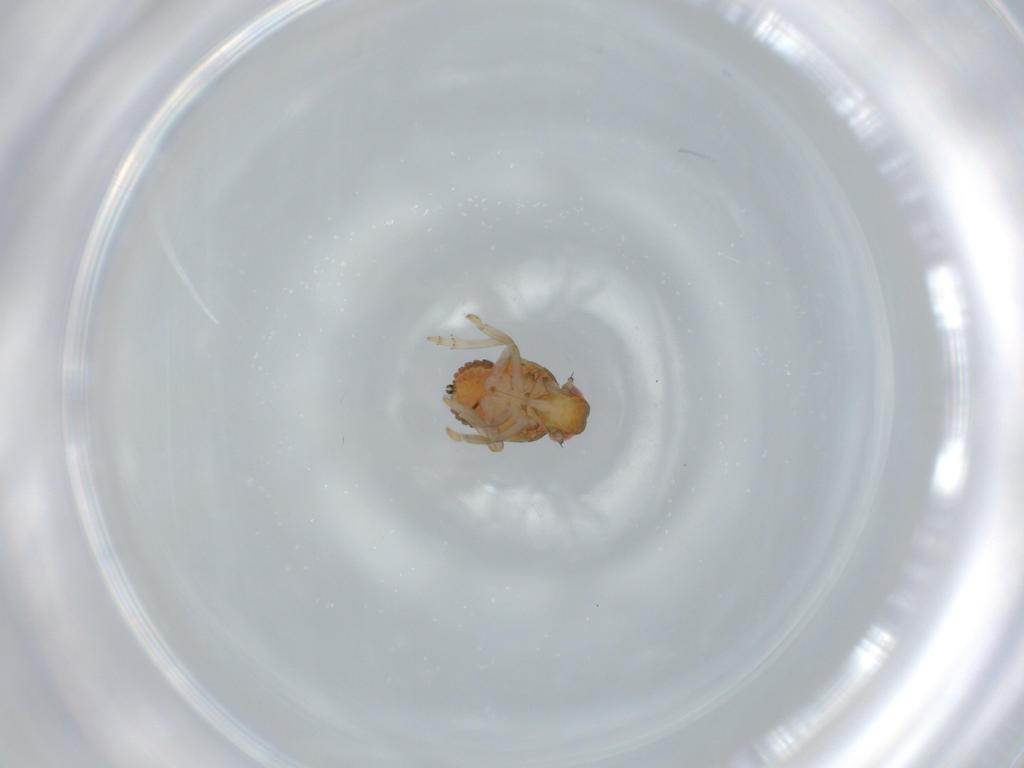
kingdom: Animalia
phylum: Arthropoda
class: Insecta
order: Hemiptera
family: Issidae
